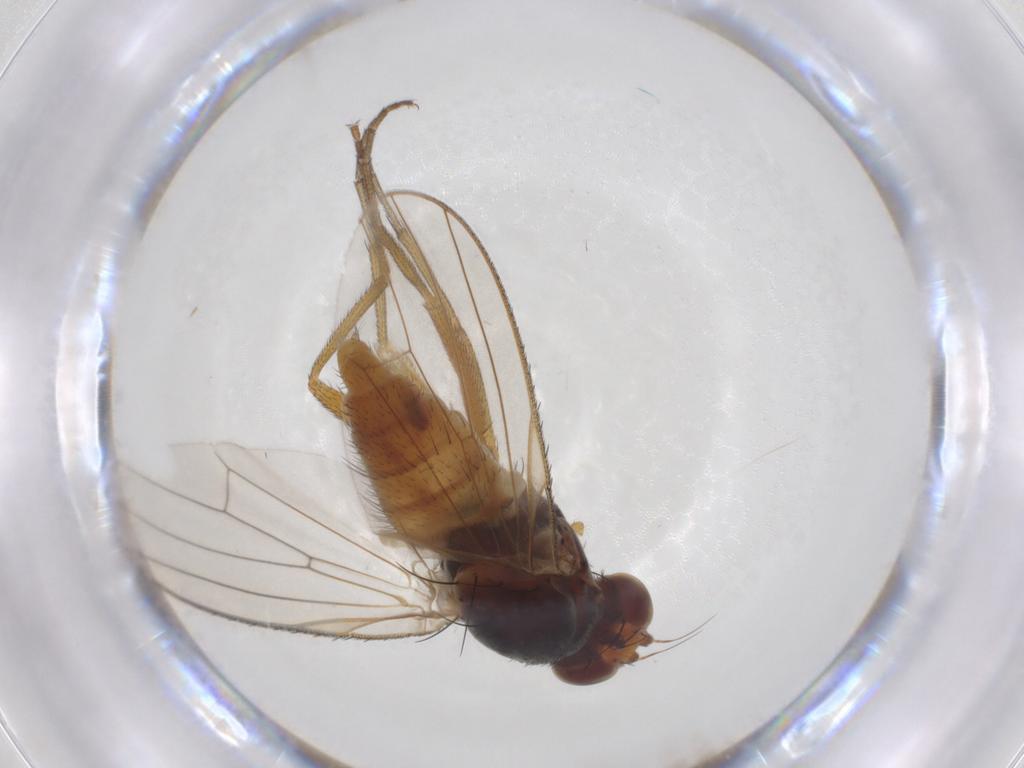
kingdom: Animalia
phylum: Arthropoda
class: Insecta
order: Diptera
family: Heleomyzidae
